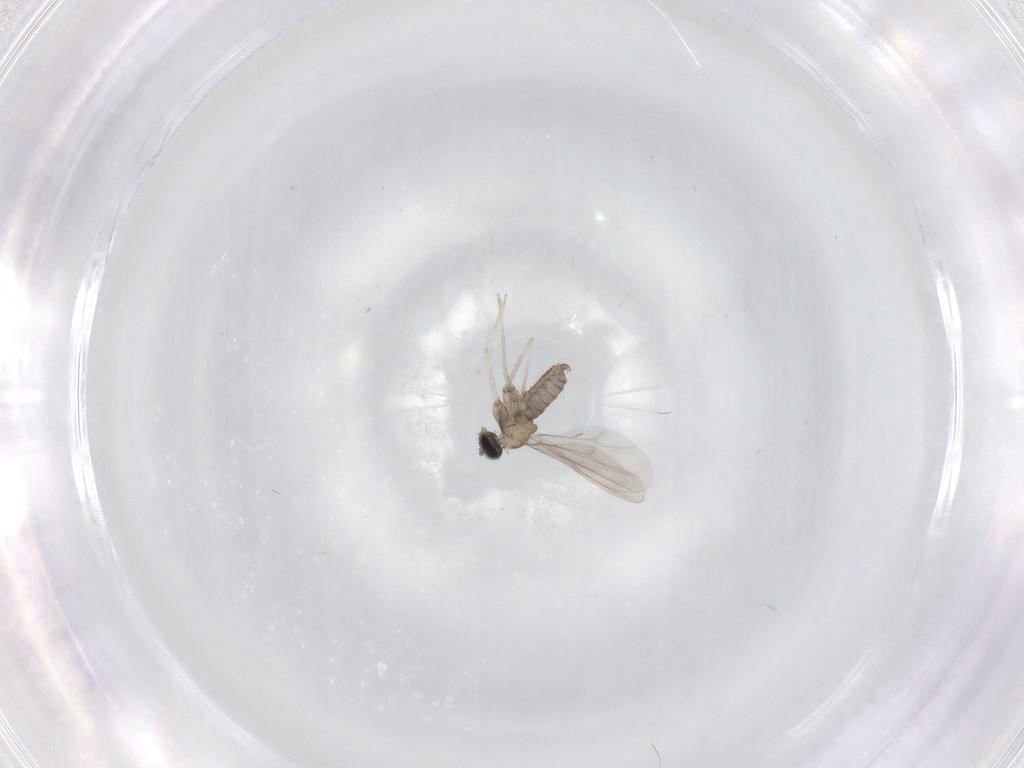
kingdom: Animalia
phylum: Arthropoda
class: Insecta
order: Diptera
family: Cecidomyiidae
